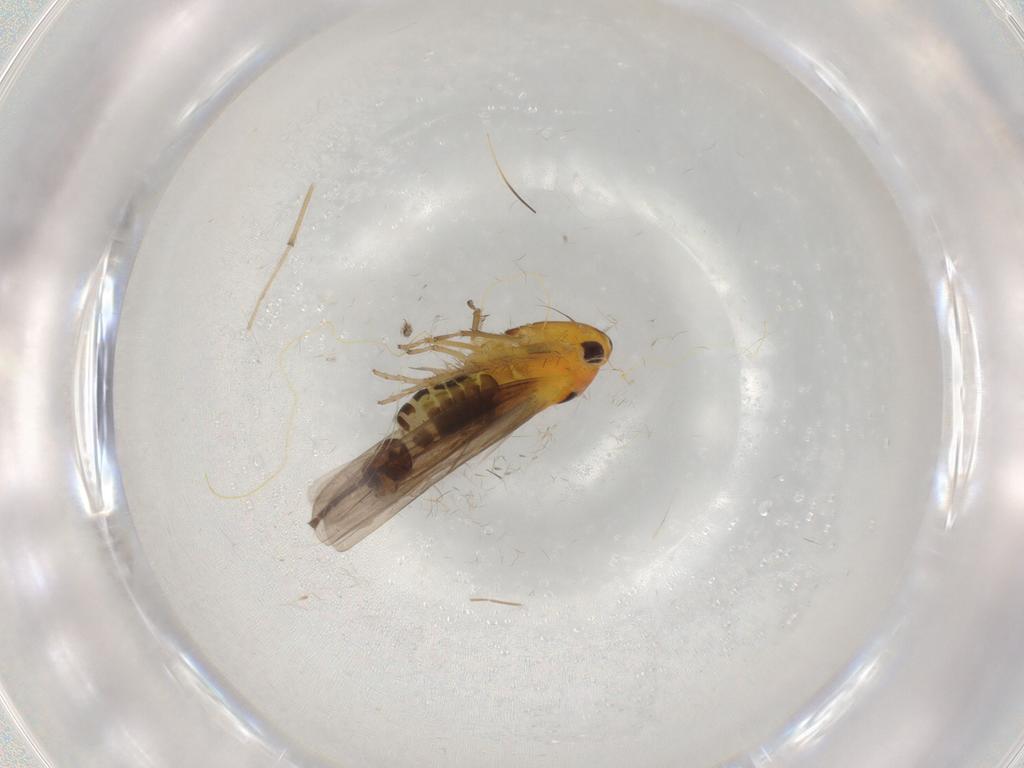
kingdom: Animalia
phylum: Arthropoda
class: Insecta
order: Hemiptera
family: Cicadellidae
